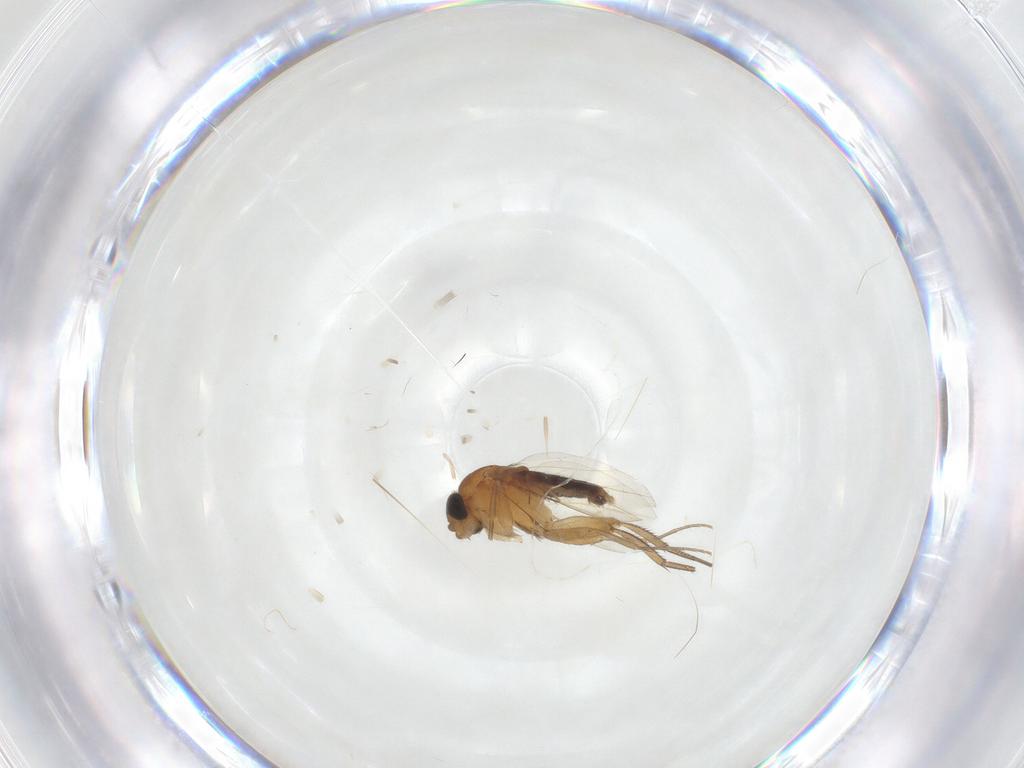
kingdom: Animalia
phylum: Arthropoda
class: Insecta
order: Diptera
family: Phoridae
